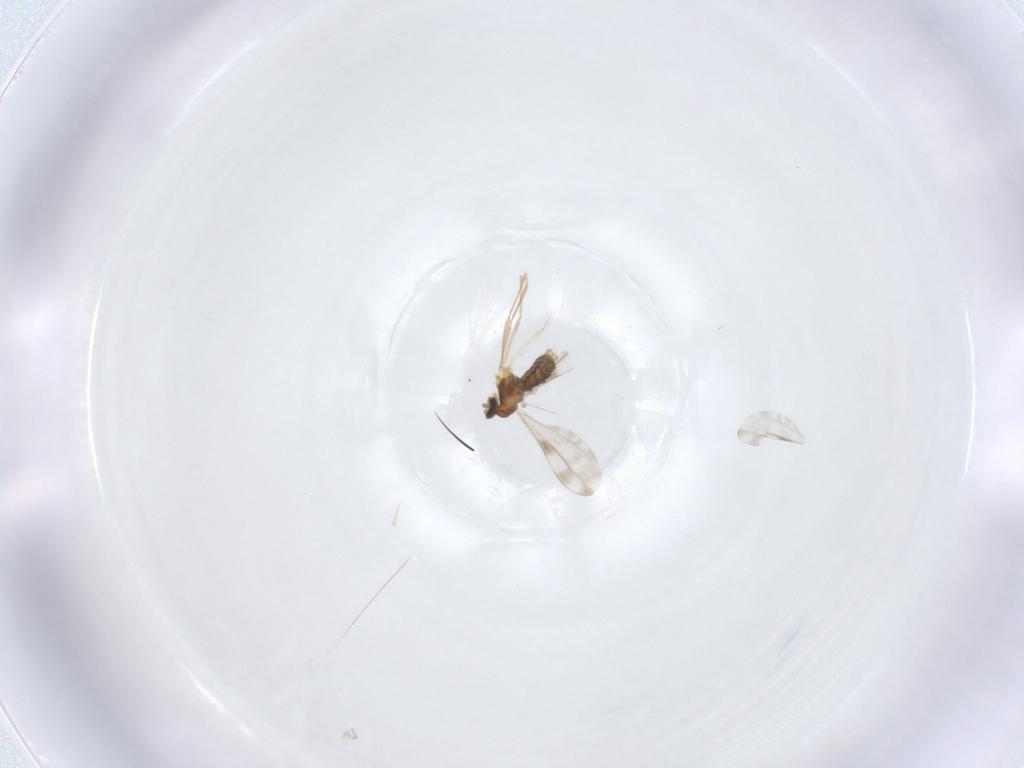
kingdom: Animalia
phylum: Arthropoda
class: Insecta
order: Diptera
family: Cecidomyiidae
